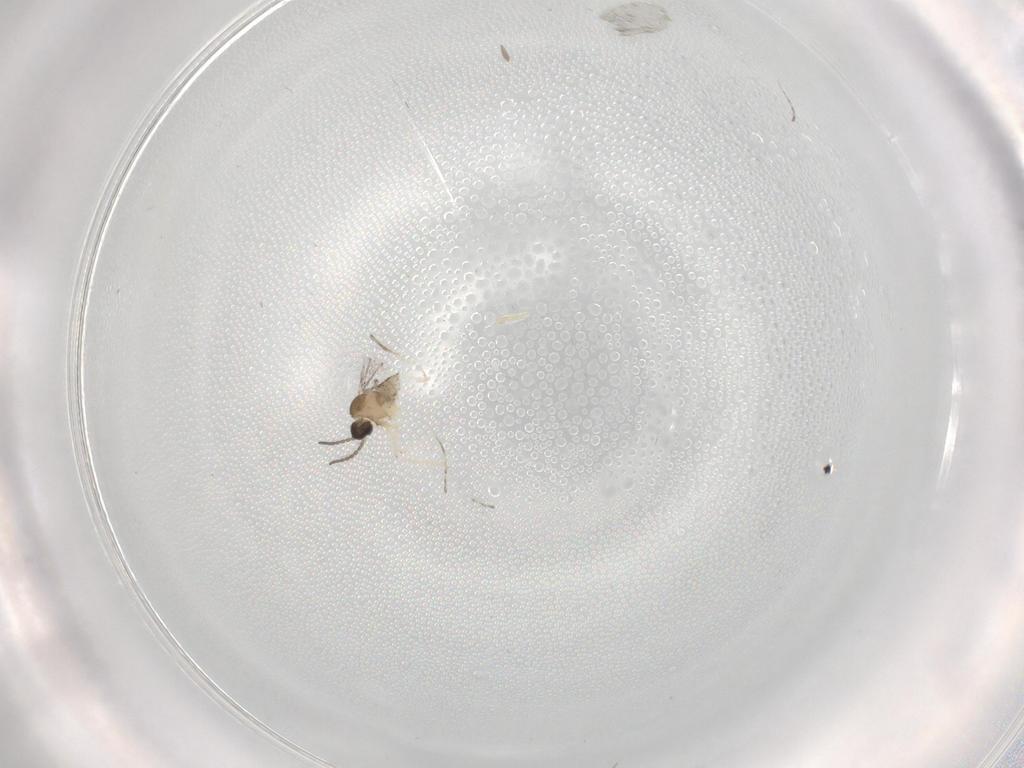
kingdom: Animalia
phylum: Arthropoda
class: Insecta
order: Diptera
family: Cecidomyiidae
